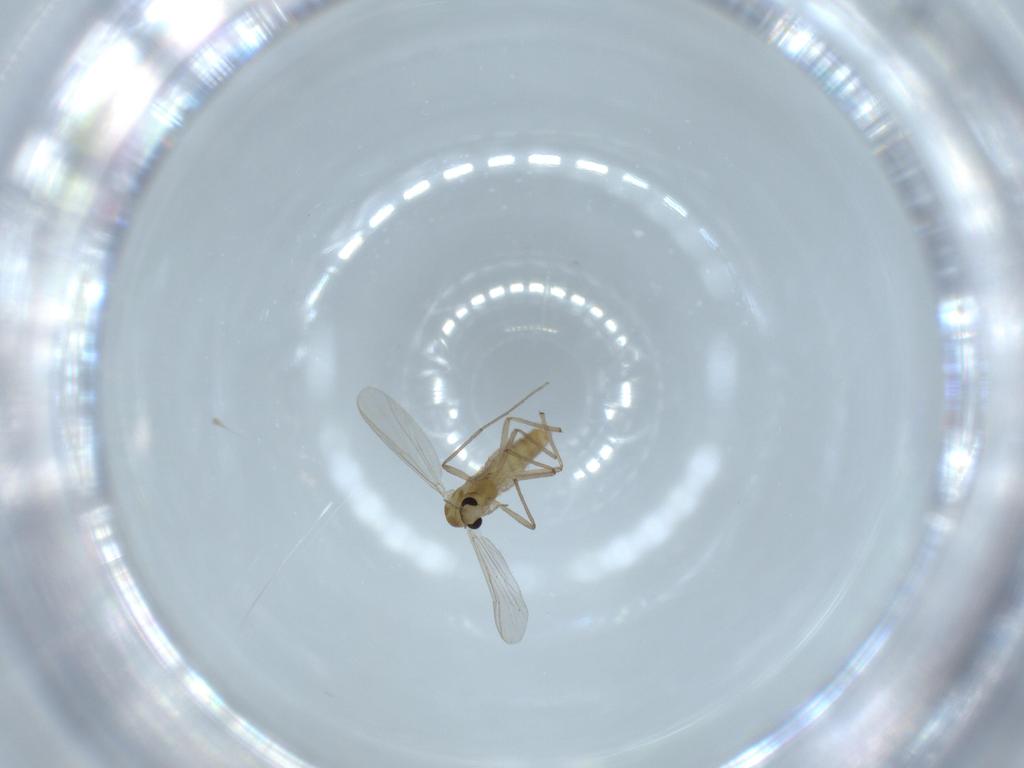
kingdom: Animalia
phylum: Arthropoda
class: Insecta
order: Diptera
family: Chironomidae
